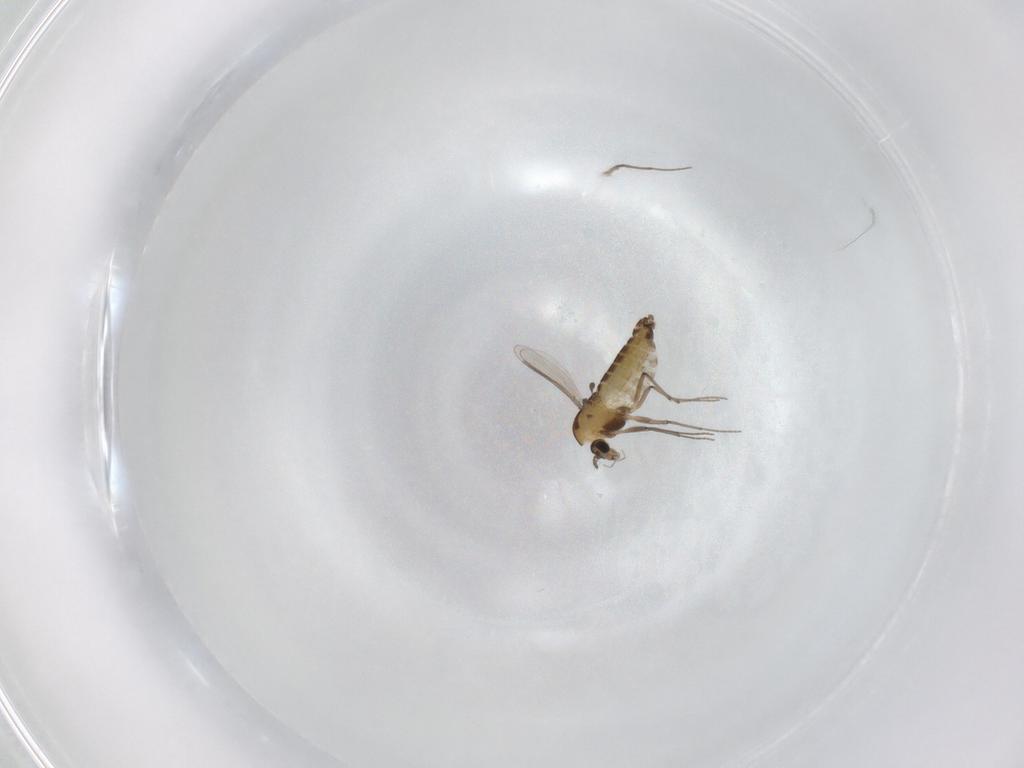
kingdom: Animalia
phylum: Arthropoda
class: Insecta
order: Diptera
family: Chironomidae
